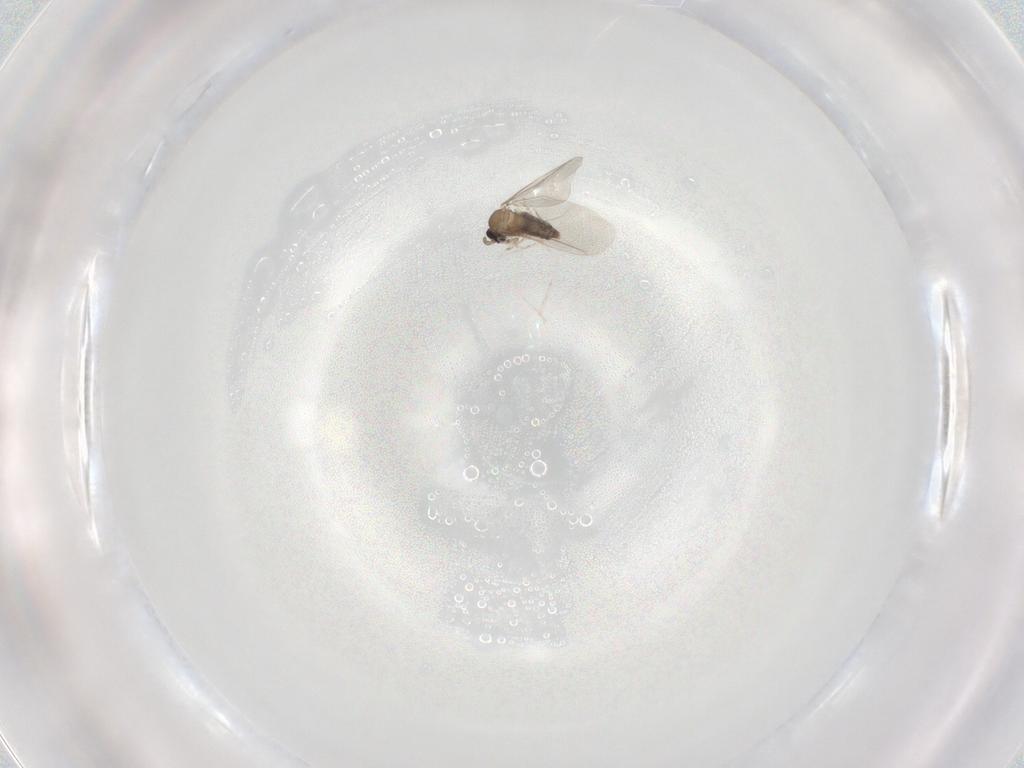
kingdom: Animalia
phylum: Arthropoda
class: Insecta
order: Diptera
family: Cecidomyiidae
